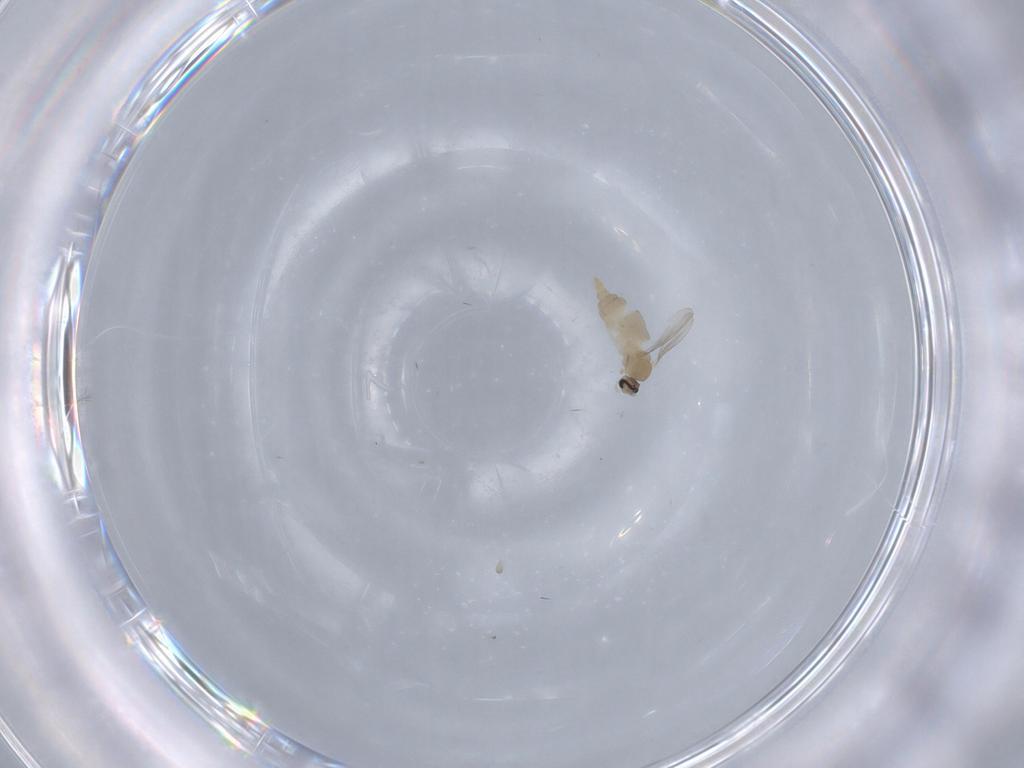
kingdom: Animalia
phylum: Arthropoda
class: Insecta
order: Diptera
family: Cecidomyiidae
